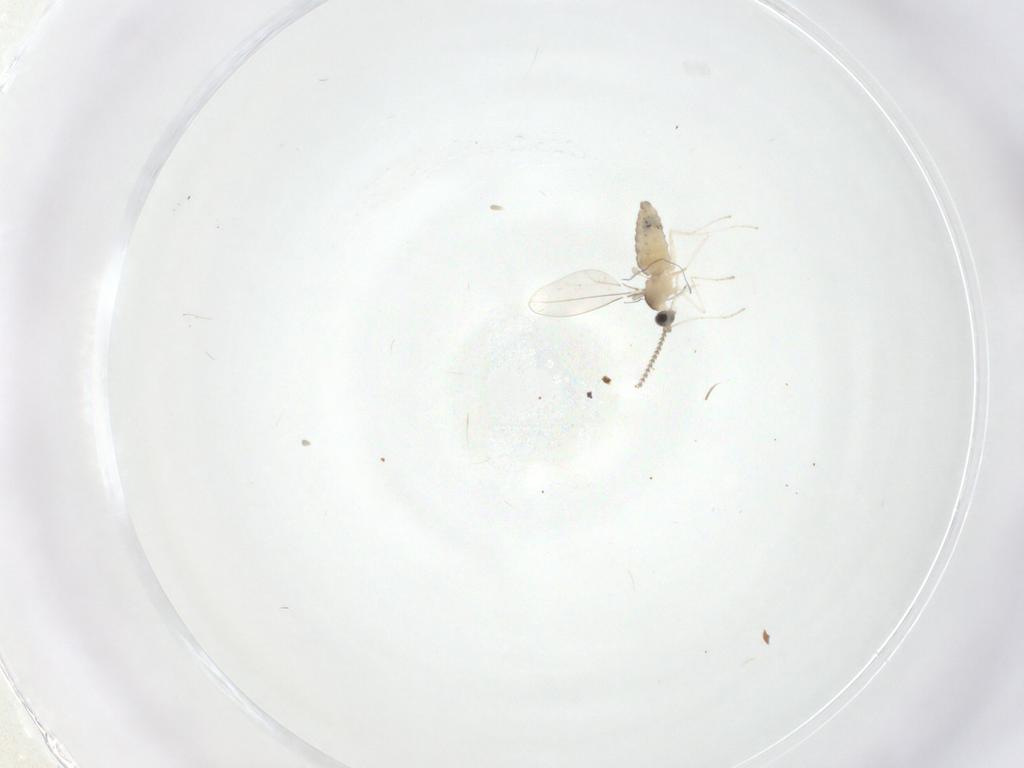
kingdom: Animalia
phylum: Arthropoda
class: Insecta
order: Diptera
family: Cecidomyiidae
